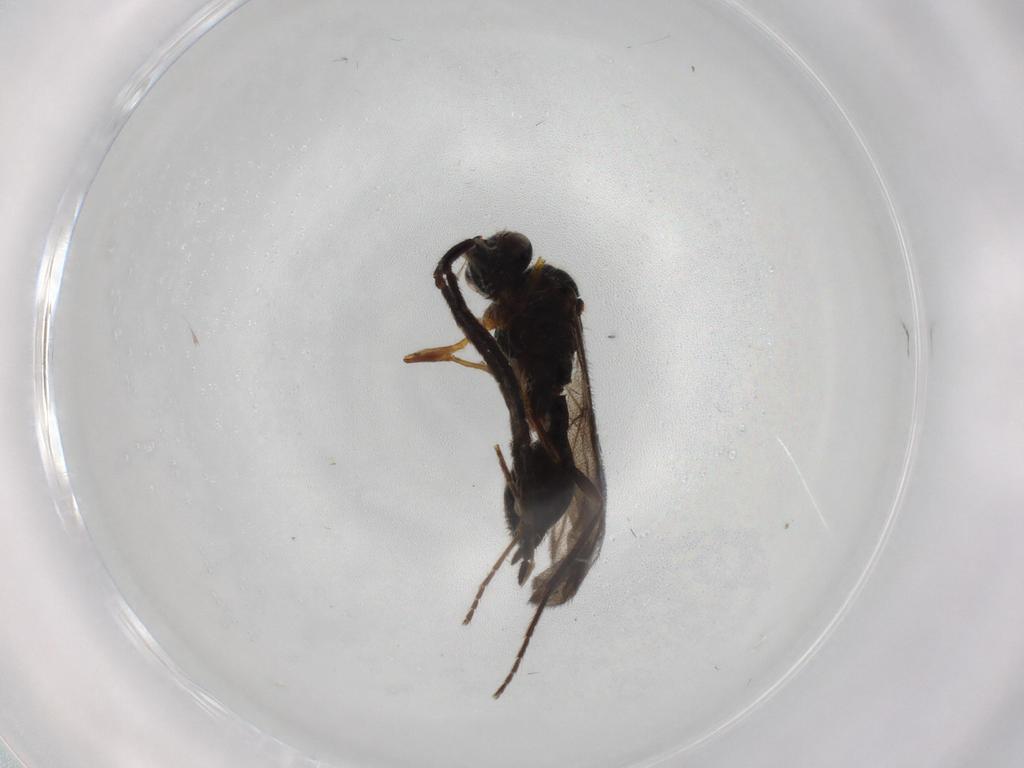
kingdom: Animalia
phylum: Arthropoda
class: Insecta
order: Hymenoptera
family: Diapriidae
